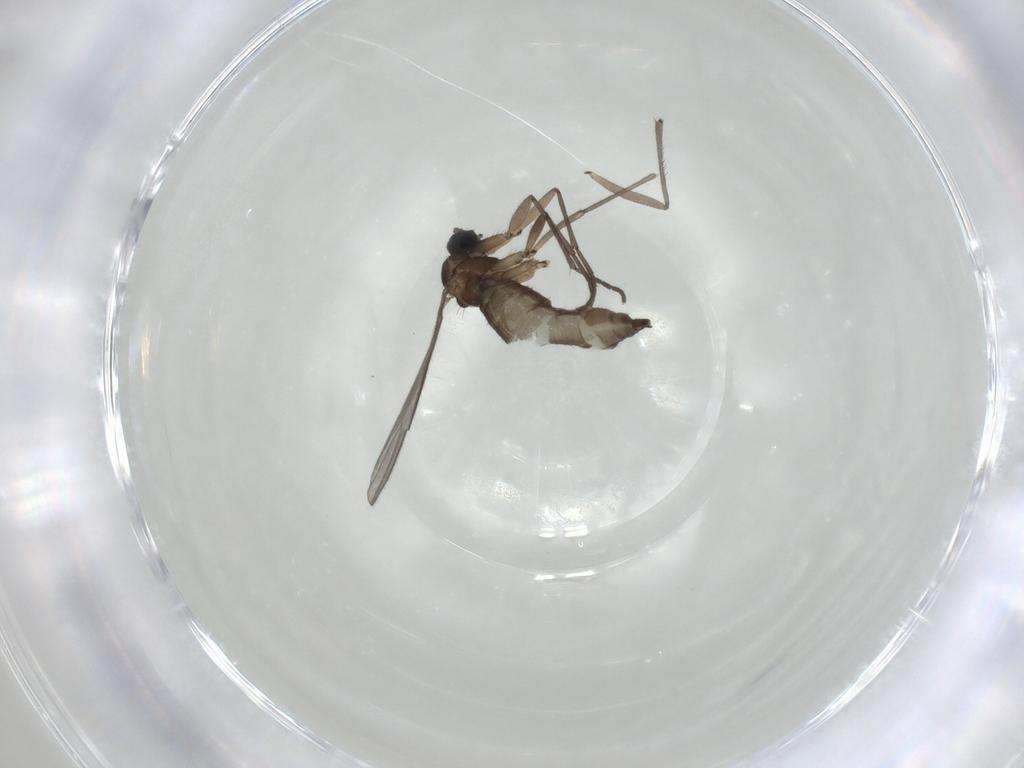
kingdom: Animalia
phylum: Arthropoda
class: Insecta
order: Diptera
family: Sciaridae
